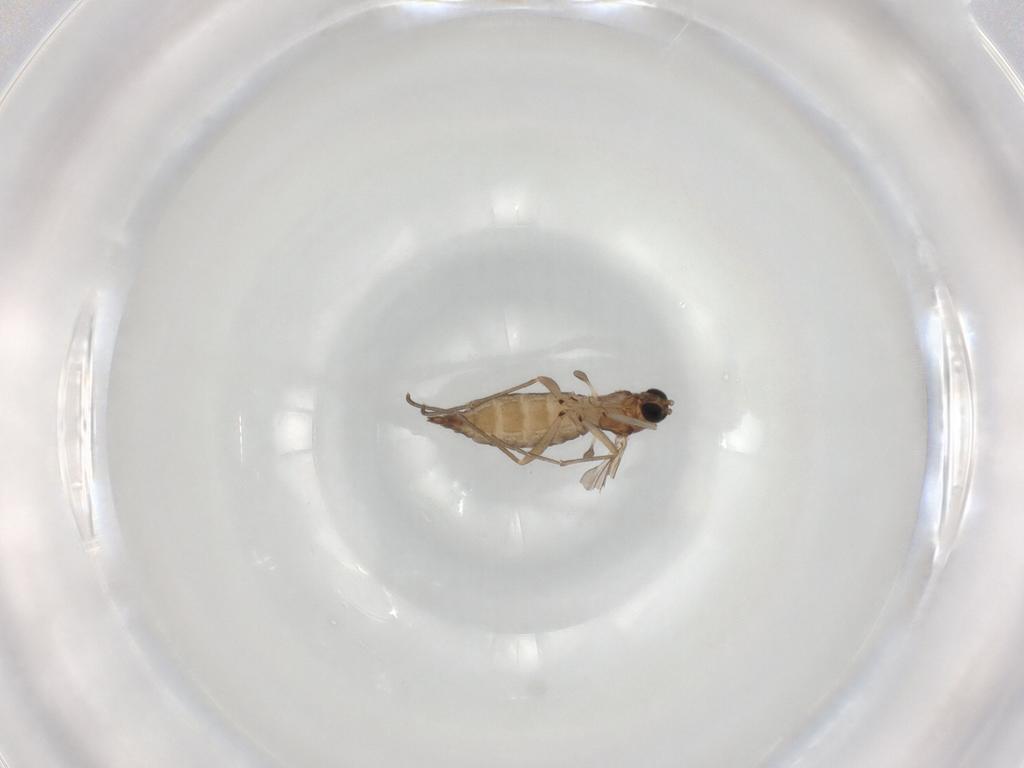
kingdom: Animalia
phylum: Arthropoda
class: Insecta
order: Diptera
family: Sciaridae
